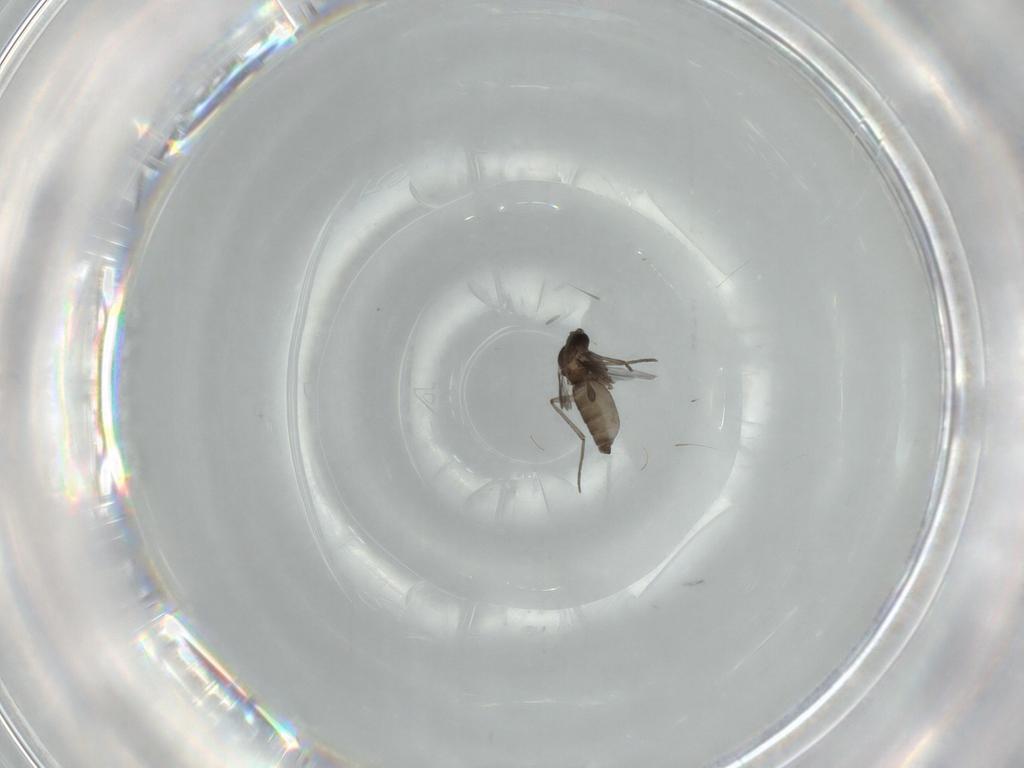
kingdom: Animalia
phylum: Arthropoda
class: Insecta
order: Diptera
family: Sciaridae
